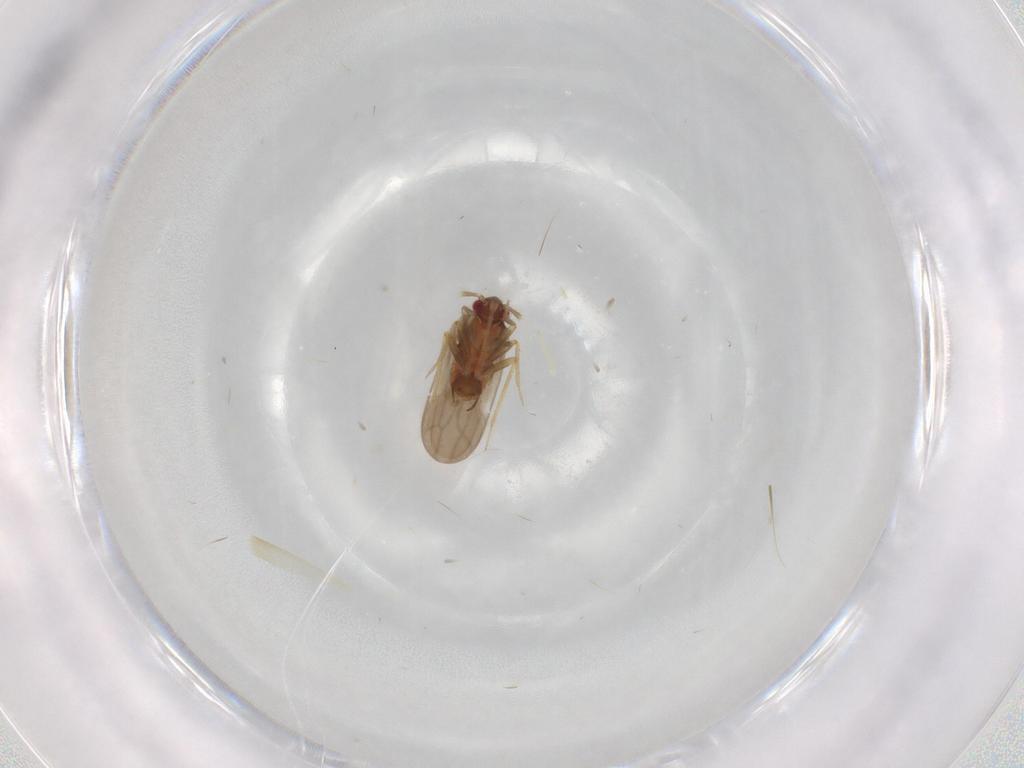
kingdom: Animalia
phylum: Arthropoda
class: Insecta
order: Hemiptera
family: Ceratocombidae
